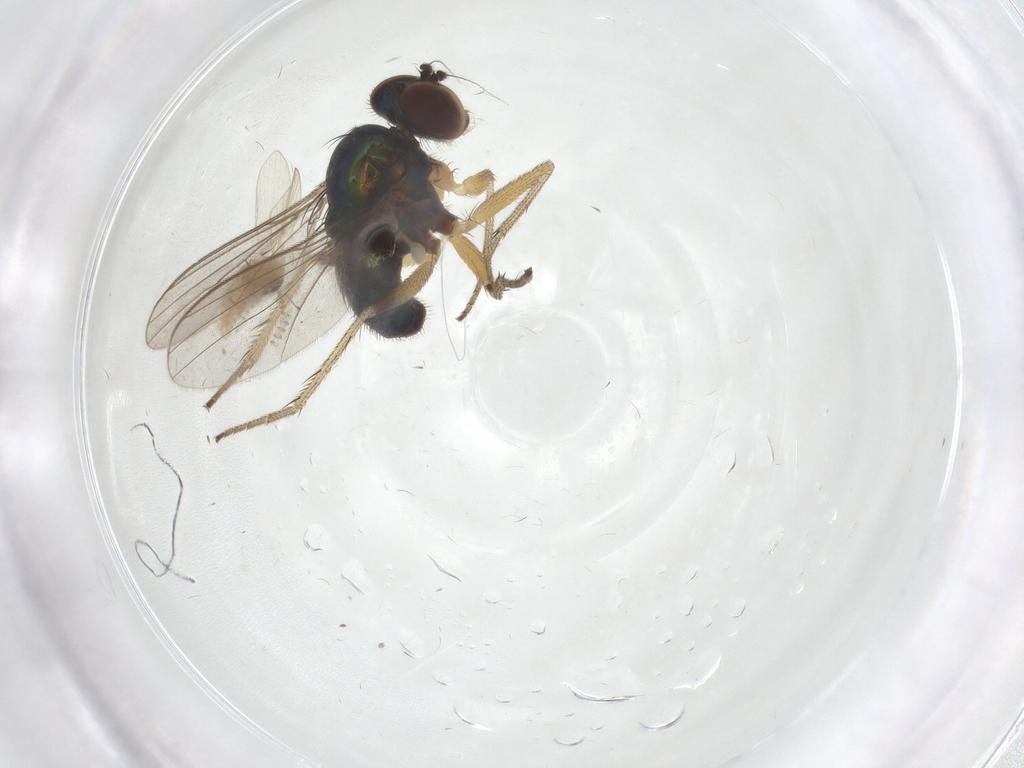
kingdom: Animalia
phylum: Arthropoda
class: Insecta
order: Diptera
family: Psychodidae
